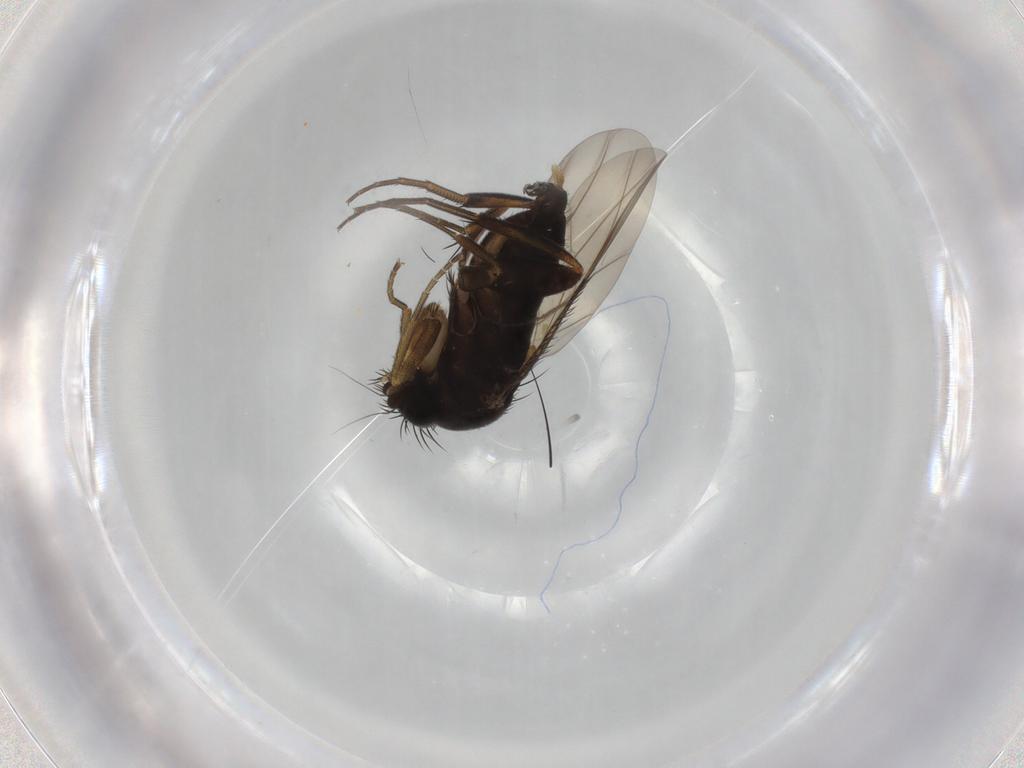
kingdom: Animalia
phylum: Arthropoda
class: Insecta
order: Diptera
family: Phoridae
